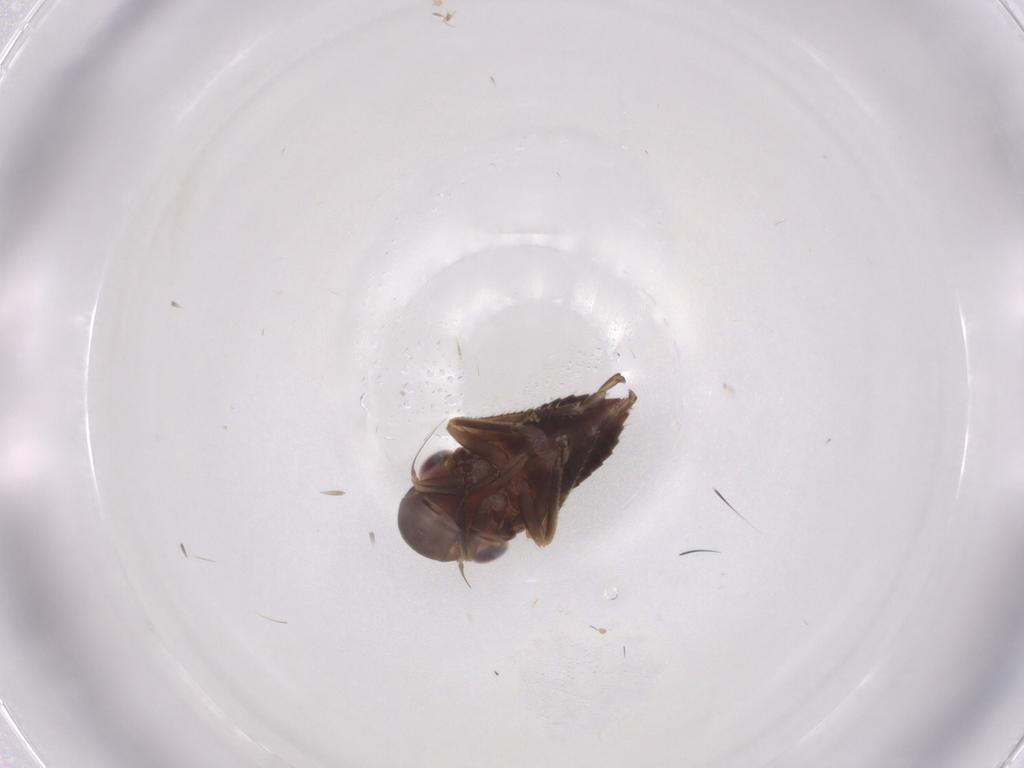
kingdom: Animalia
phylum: Arthropoda
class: Insecta
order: Hemiptera
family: Cicadellidae
